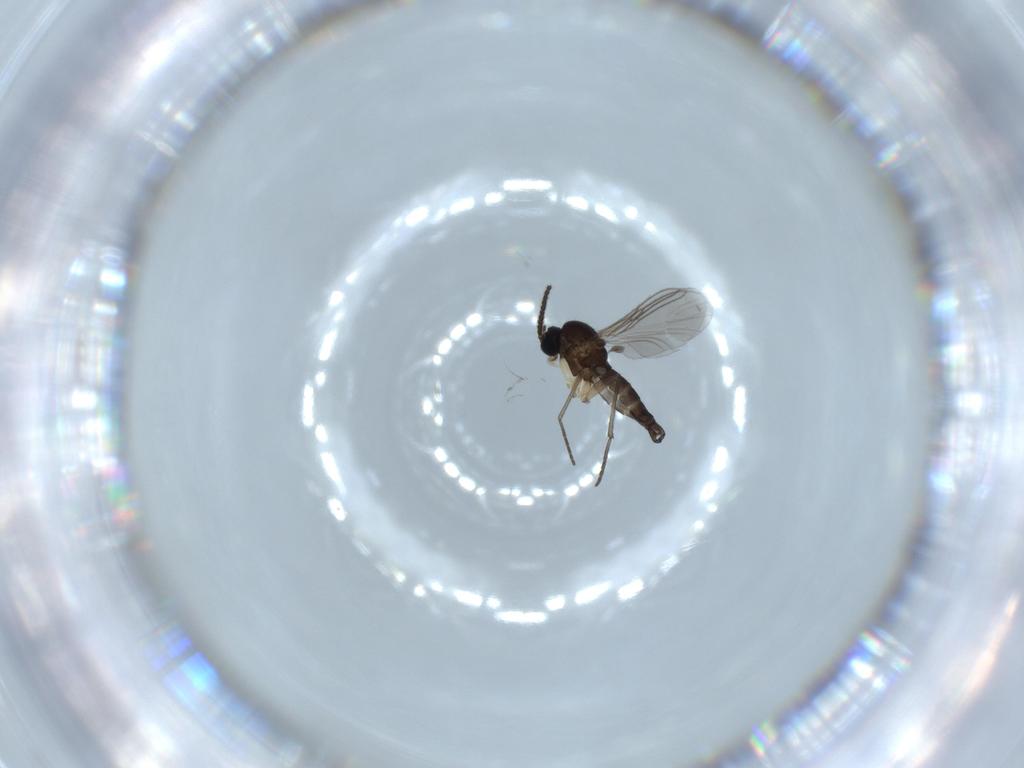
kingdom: Animalia
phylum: Arthropoda
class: Insecta
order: Diptera
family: Sciaridae
